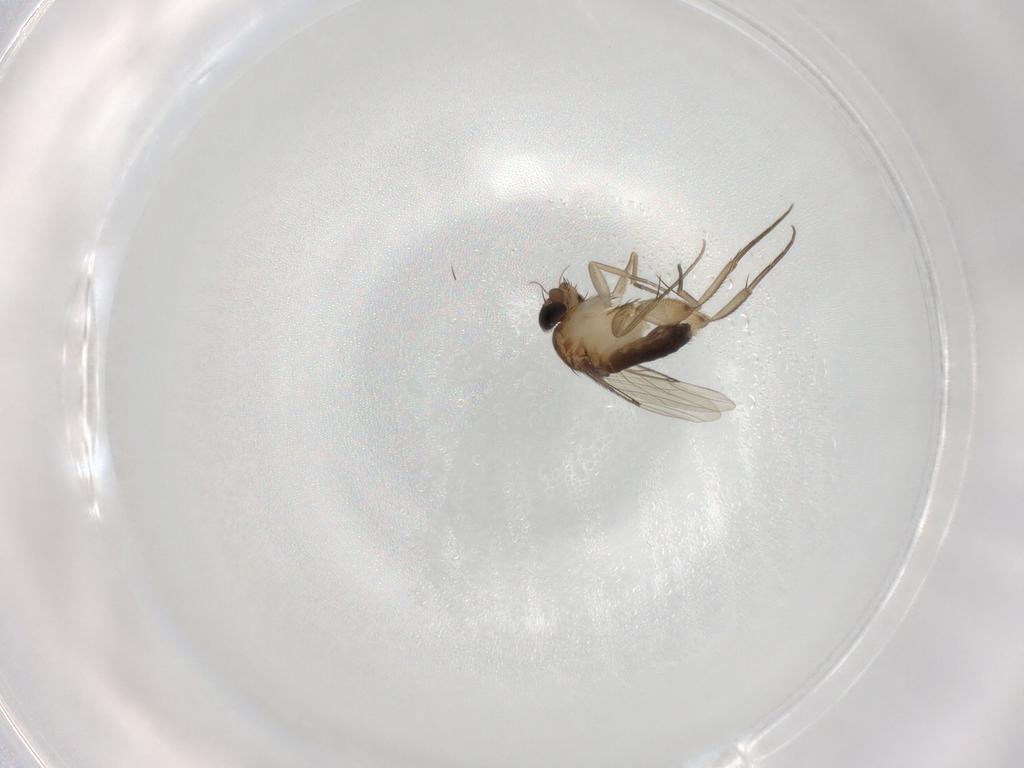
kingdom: Animalia
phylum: Arthropoda
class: Insecta
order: Diptera
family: Phoridae
